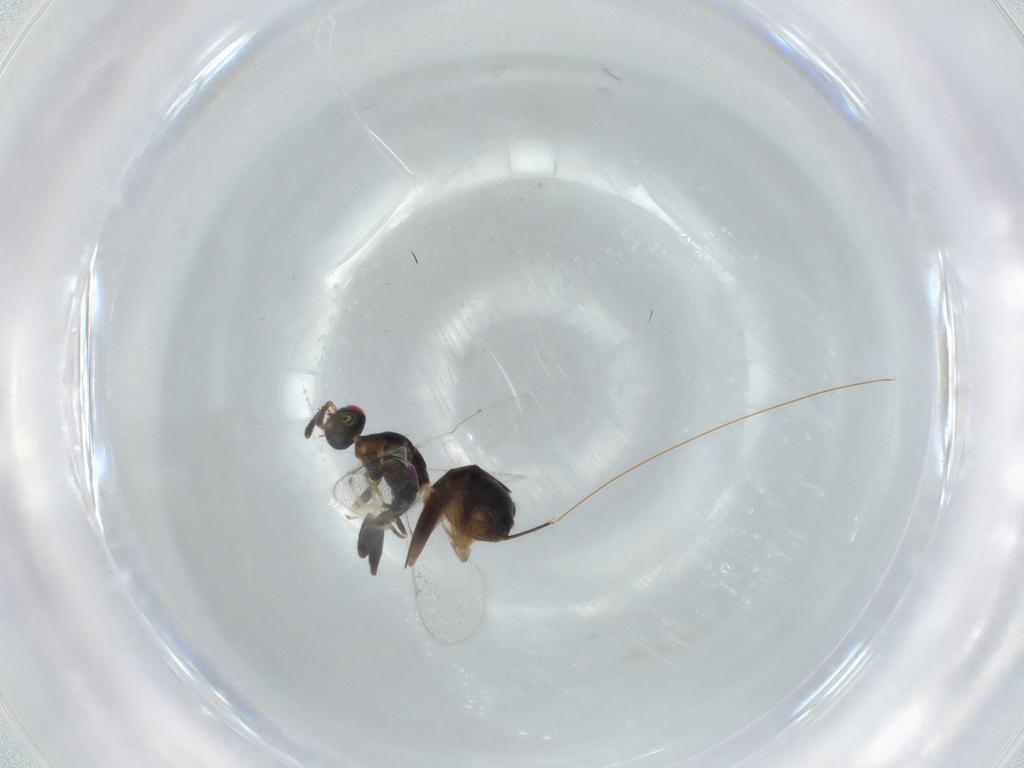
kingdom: Animalia
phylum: Arthropoda
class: Insecta
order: Hymenoptera
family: Torymidae
